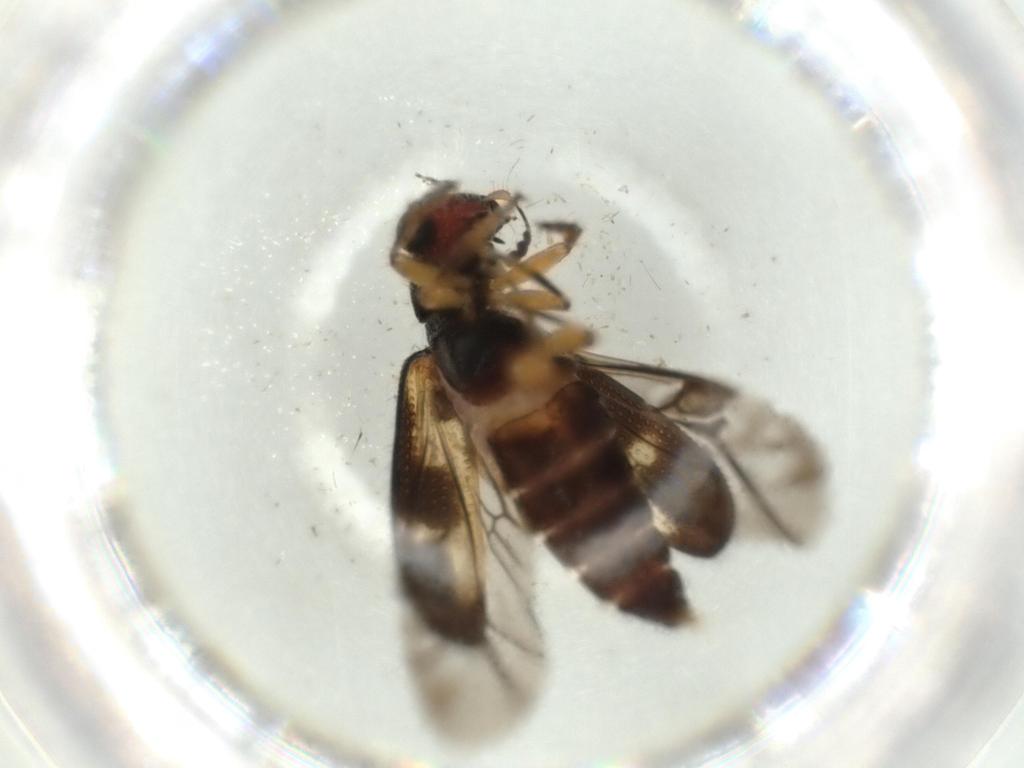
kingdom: Animalia
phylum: Arthropoda
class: Insecta
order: Coleoptera
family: Cleridae
